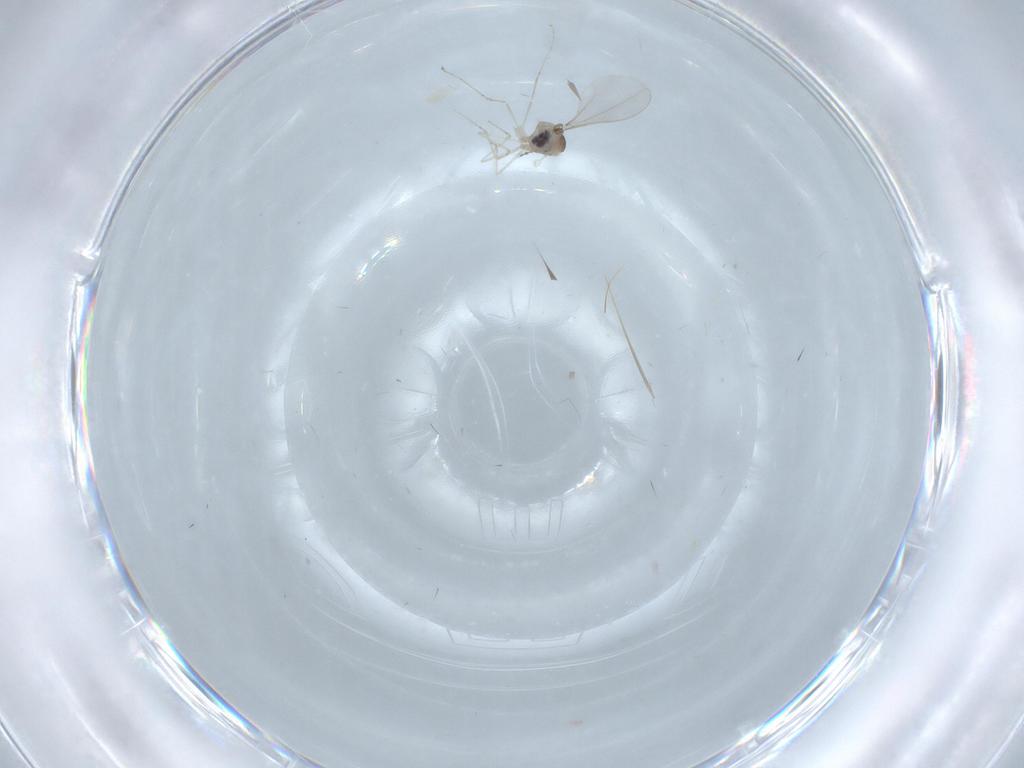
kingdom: Animalia
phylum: Arthropoda
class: Insecta
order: Diptera
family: Cecidomyiidae
